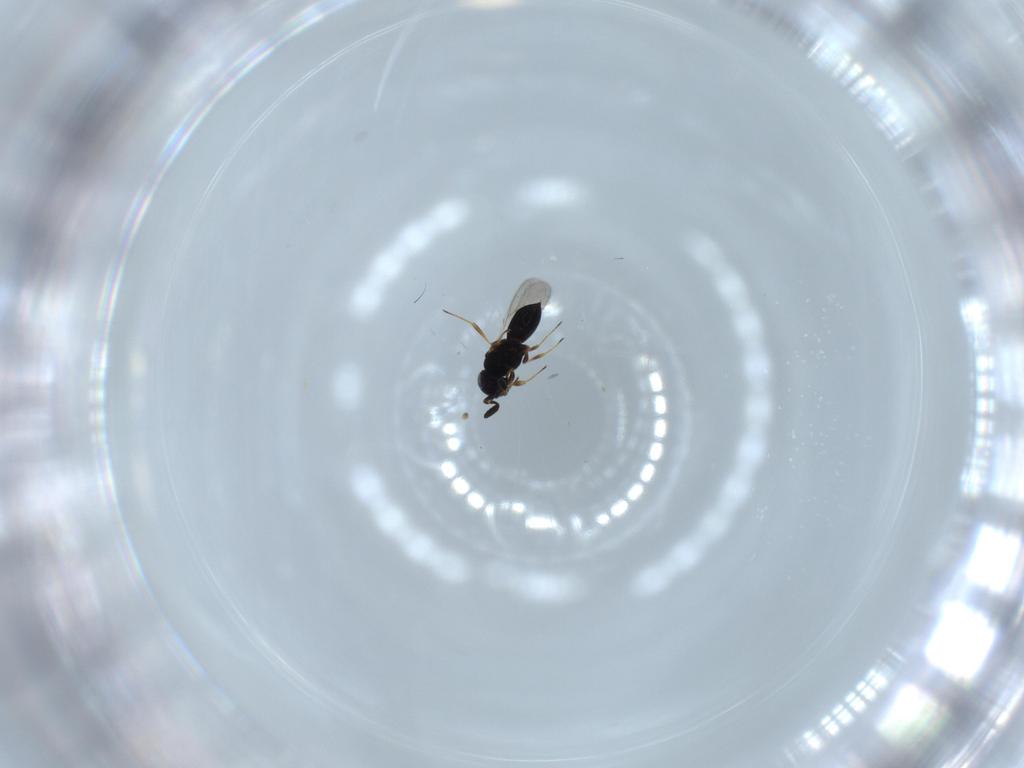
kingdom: Animalia
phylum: Arthropoda
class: Insecta
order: Hymenoptera
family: Scelionidae
